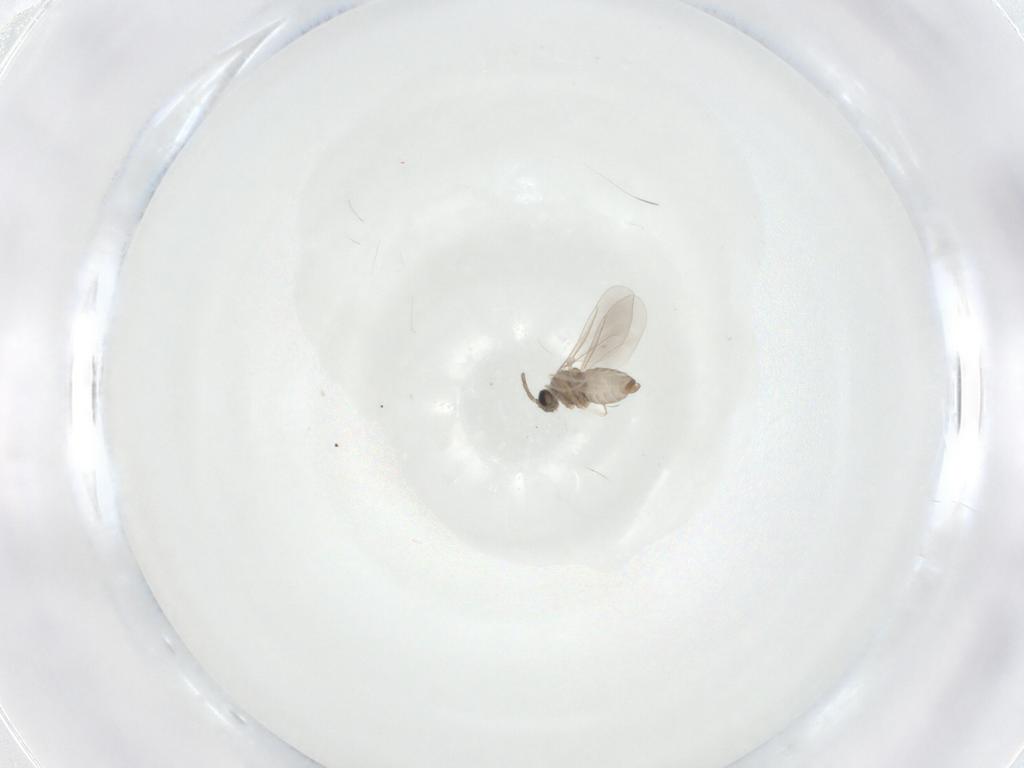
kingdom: Animalia
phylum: Arthropoda
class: Insecta
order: Diptera
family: Cecidomyiidae
